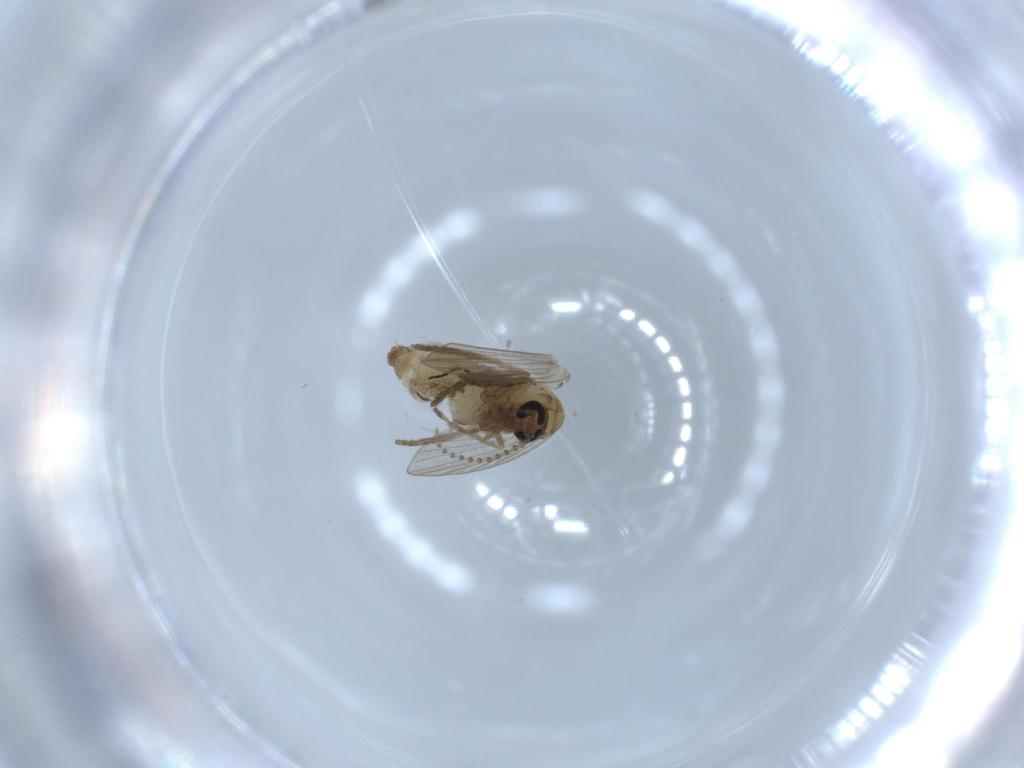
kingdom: Animalia
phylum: Arthropoda
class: Insecta
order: Diptera
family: Psychodidae
